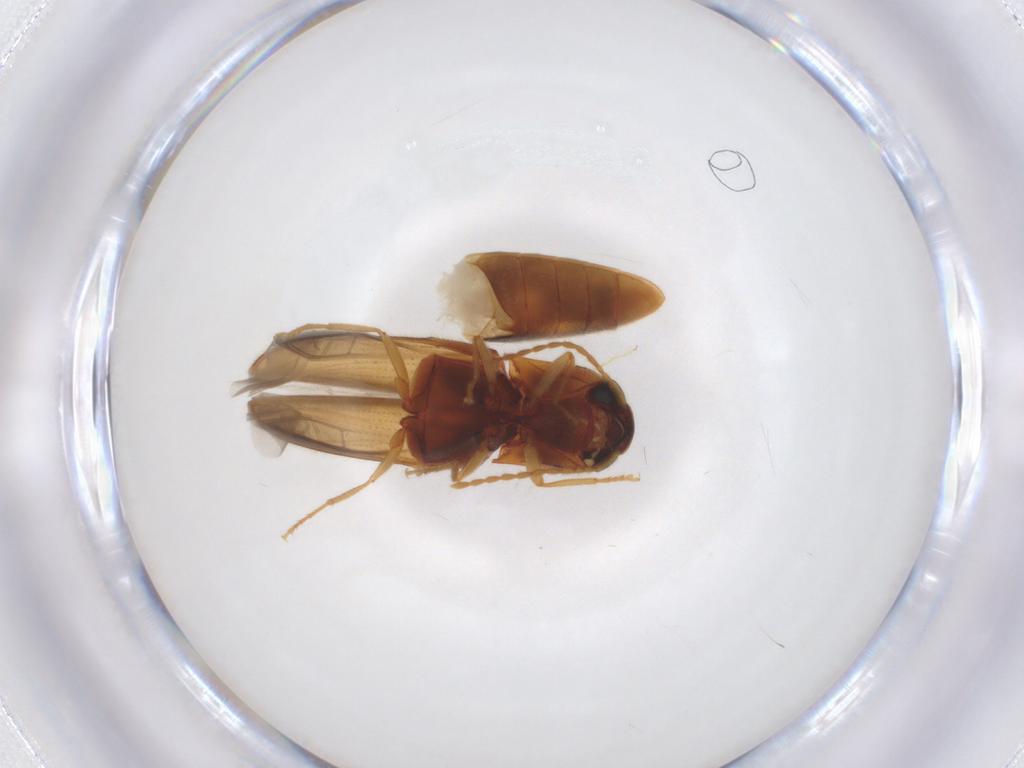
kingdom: Animalia
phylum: Arthropoda
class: Insecta
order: Coleoptera
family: Elateridae
